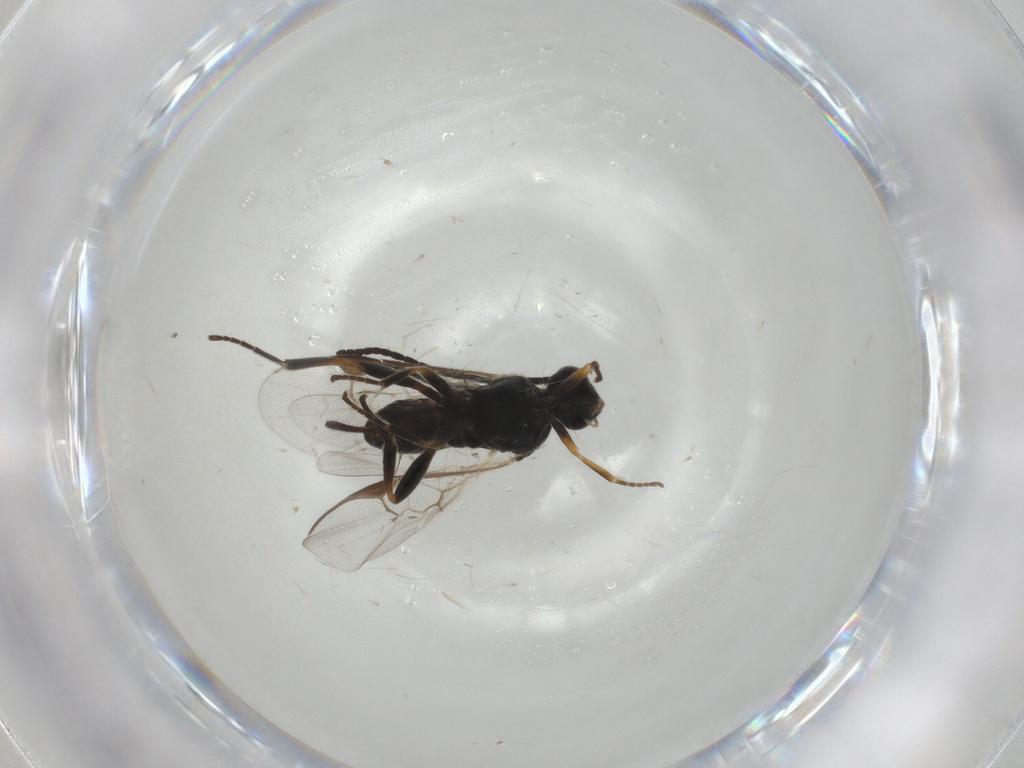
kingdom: Animalia
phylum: Arthropoda
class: Insecta
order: Hymenoptera
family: Braconidae
